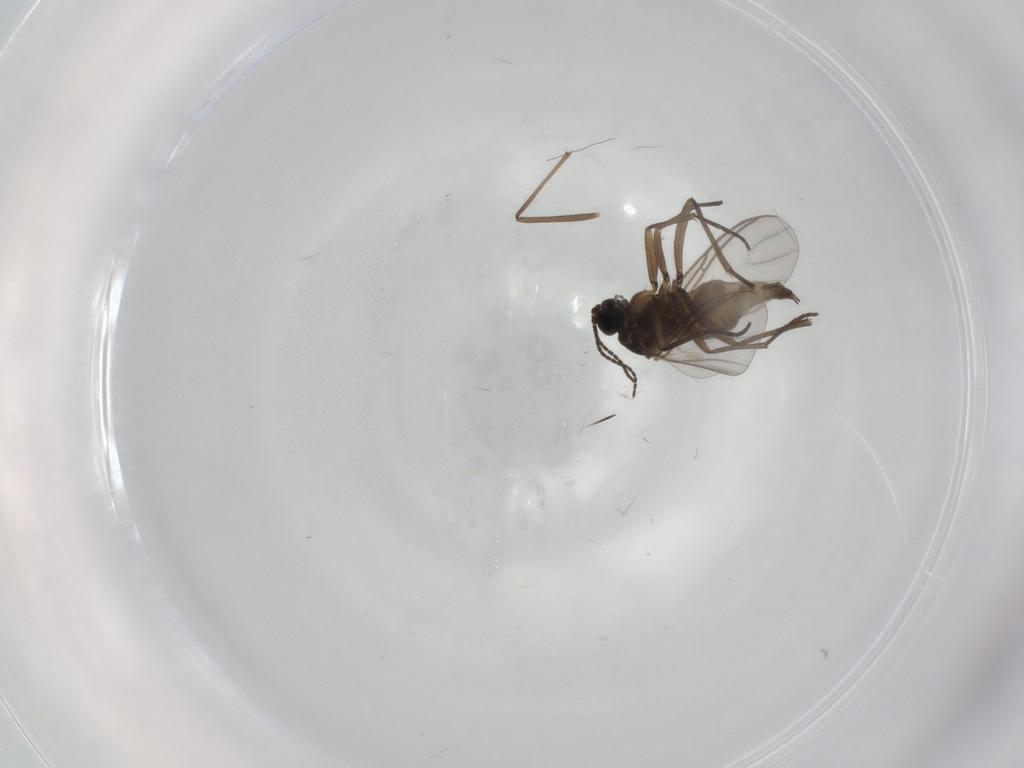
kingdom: Animalia
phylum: Arthropoda
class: Insecta
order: Diptera
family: Sciaridae
